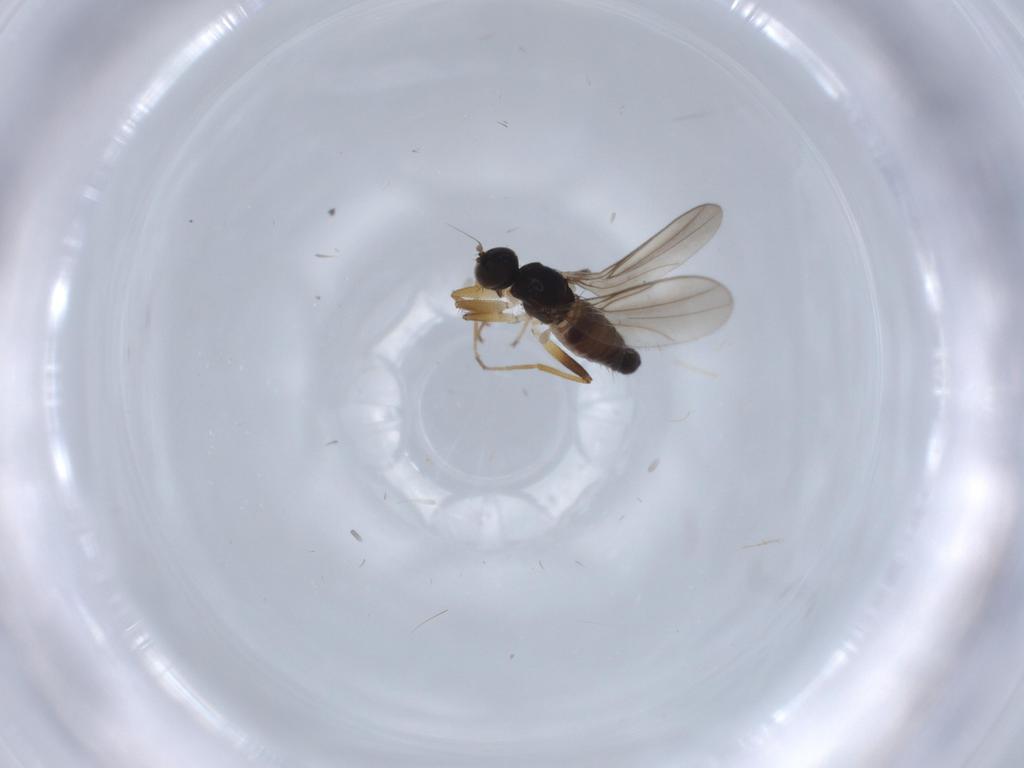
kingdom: Animalia
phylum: Arthropoda
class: Insecta
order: Diptera
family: Hybotidae
